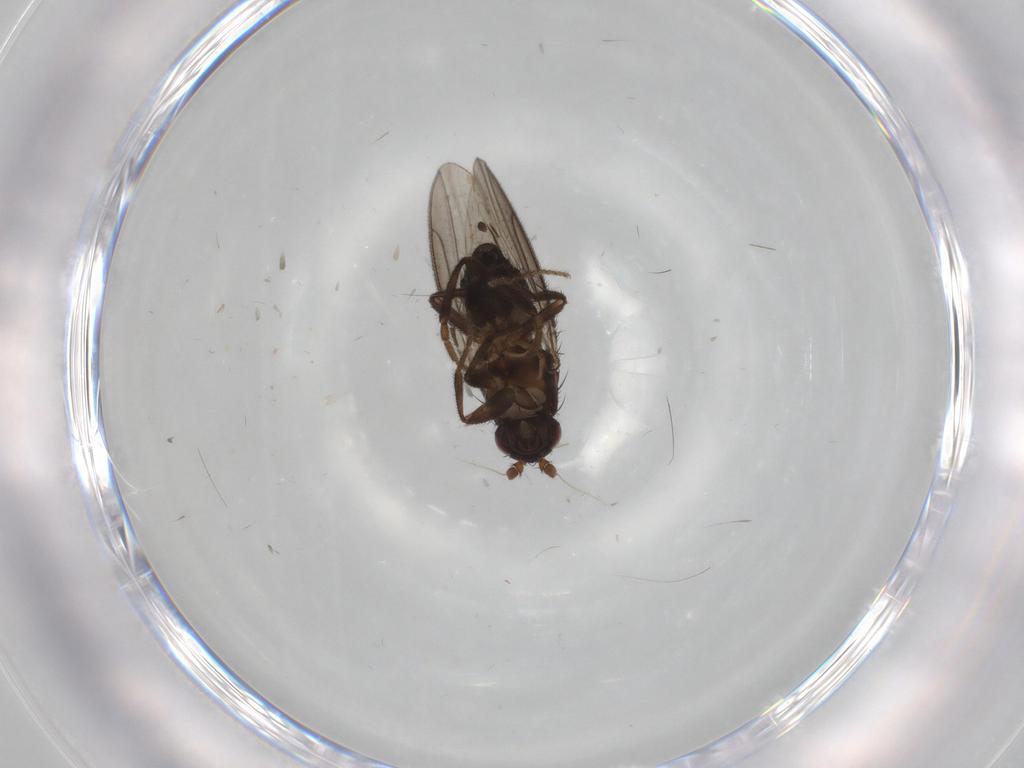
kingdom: Animalia
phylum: Arthropoda
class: Insecta
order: Diptera
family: Sphaeroceridae
